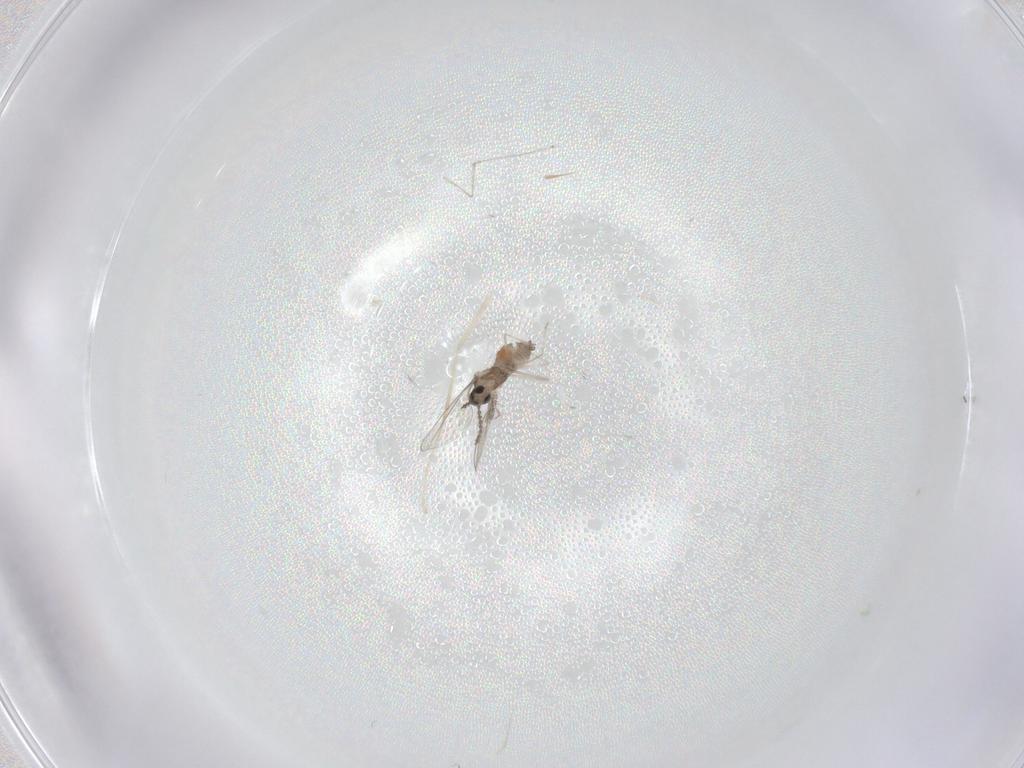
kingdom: Animalia
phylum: Arthropoda
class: Insecta
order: Diptera
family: Cecidomyiidae
